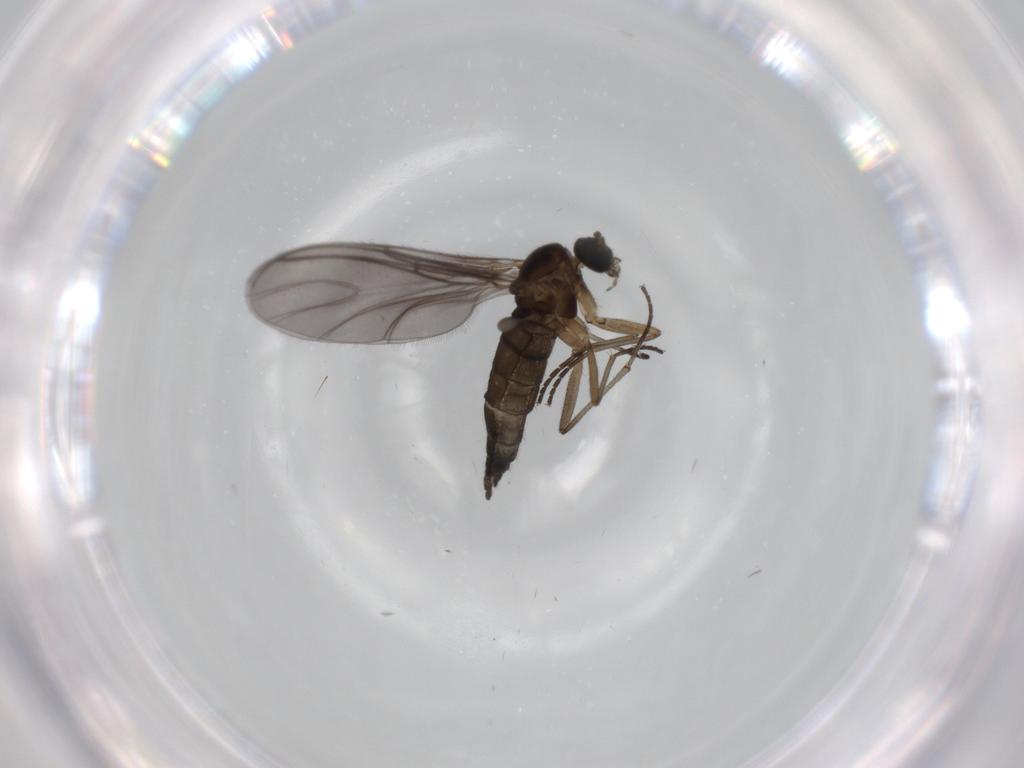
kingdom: Animalia
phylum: Arthropoda
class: Insecta
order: Diptera
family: Sciaridae
